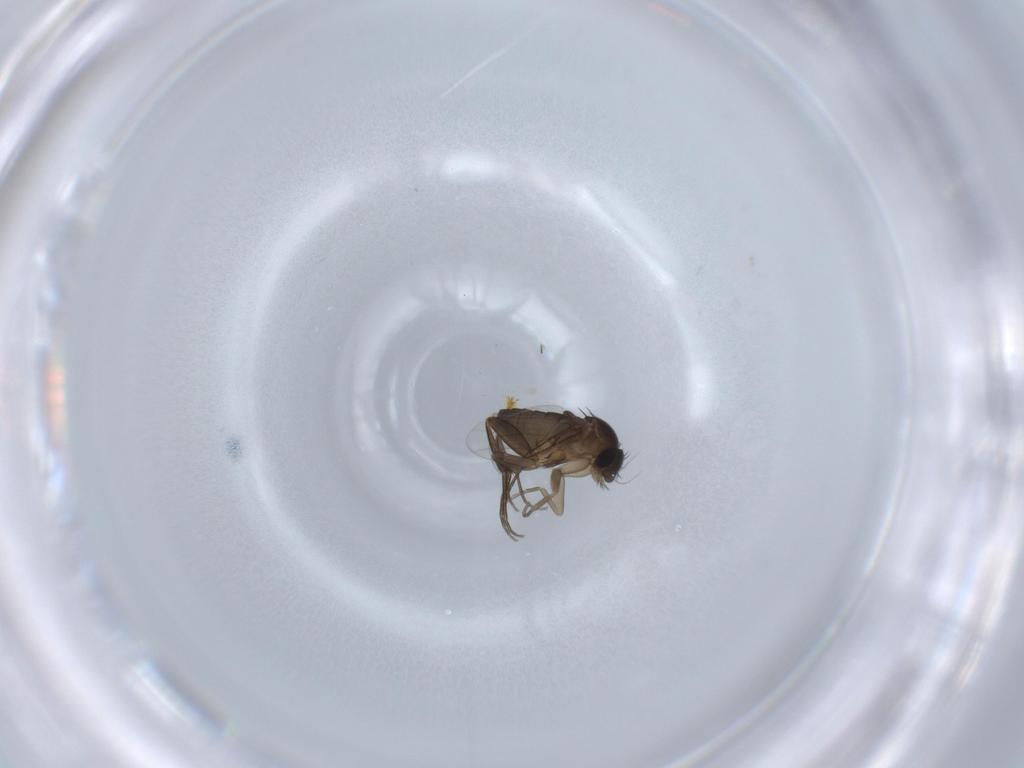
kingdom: Animalia
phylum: Arthropoda
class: Insecta
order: Diptera
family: Phoridae
